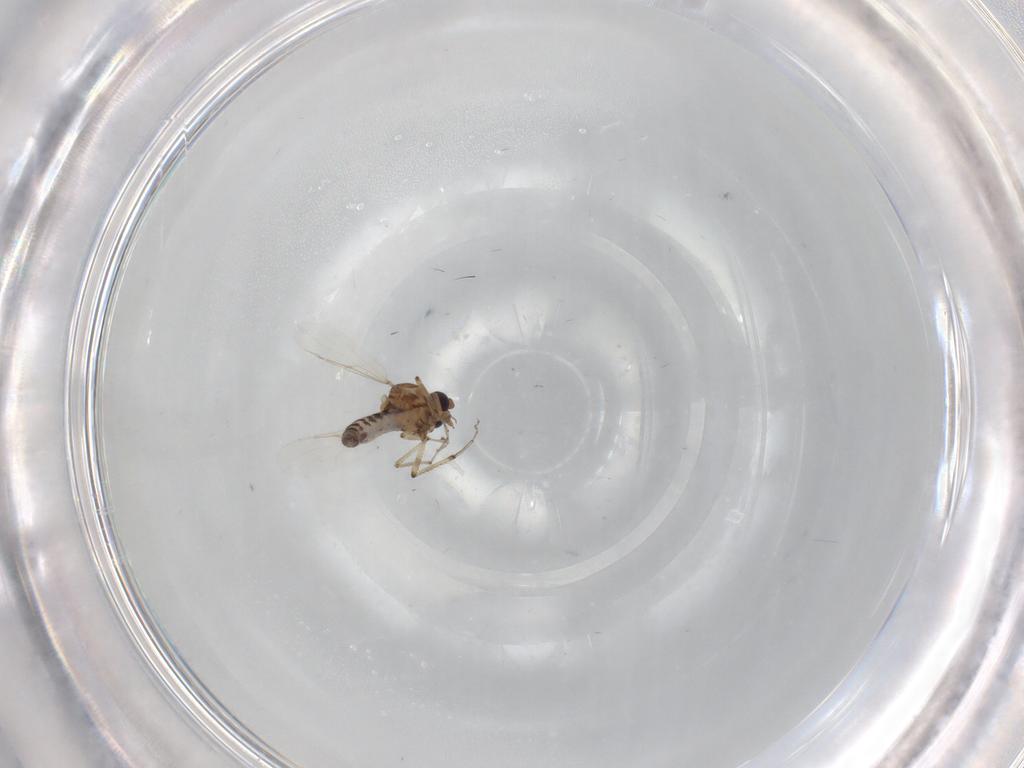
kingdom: Animalia
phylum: Arthropoda
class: Insecta
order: Diptera
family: Ceratopogonidae
